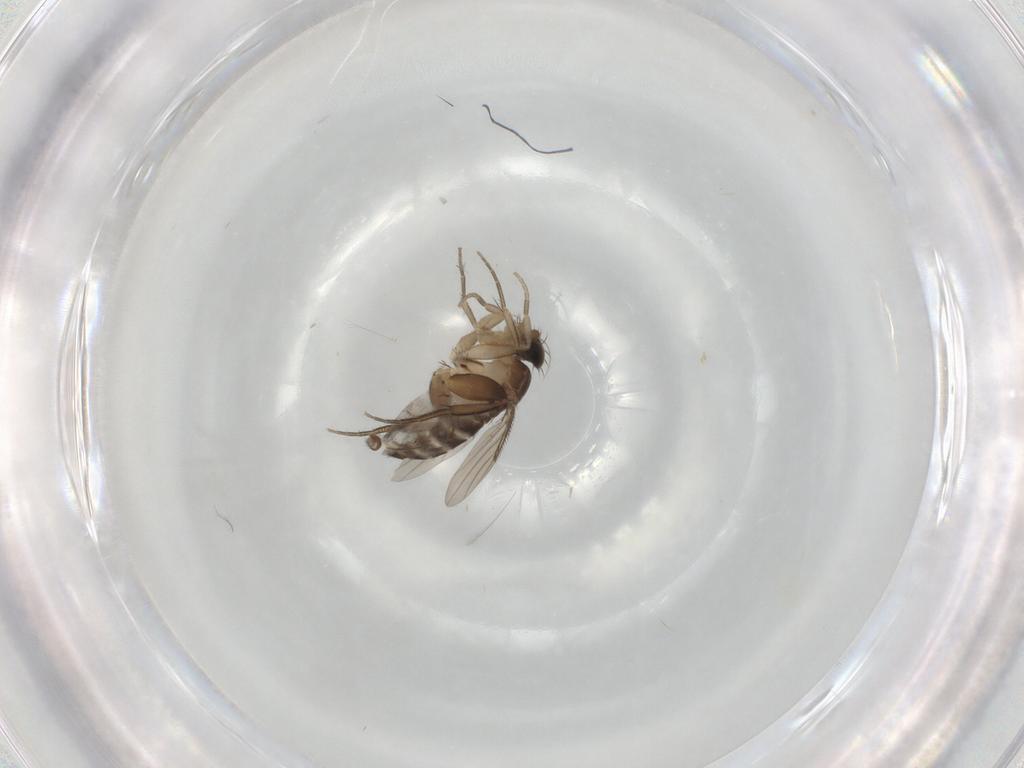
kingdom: Animalia
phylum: Arthropoda
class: Insecta
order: Diptera
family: Phoridae
